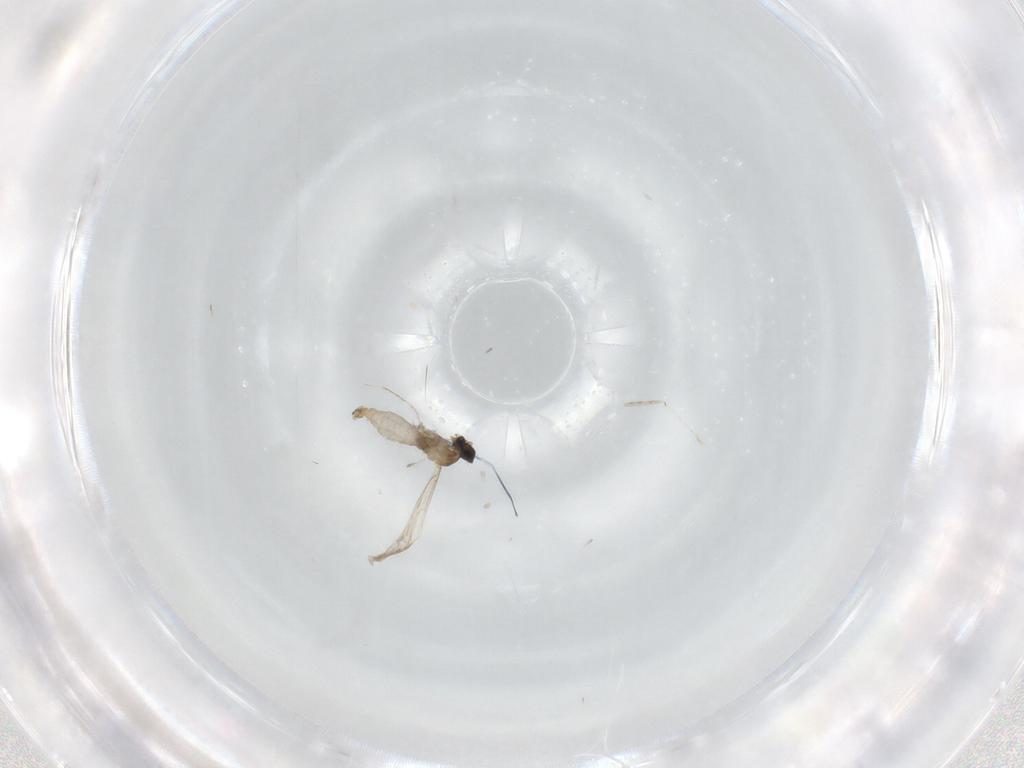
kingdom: Animalia
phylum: Arthropoda
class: Insecta
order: Diptera
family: Cecidomyiidae
